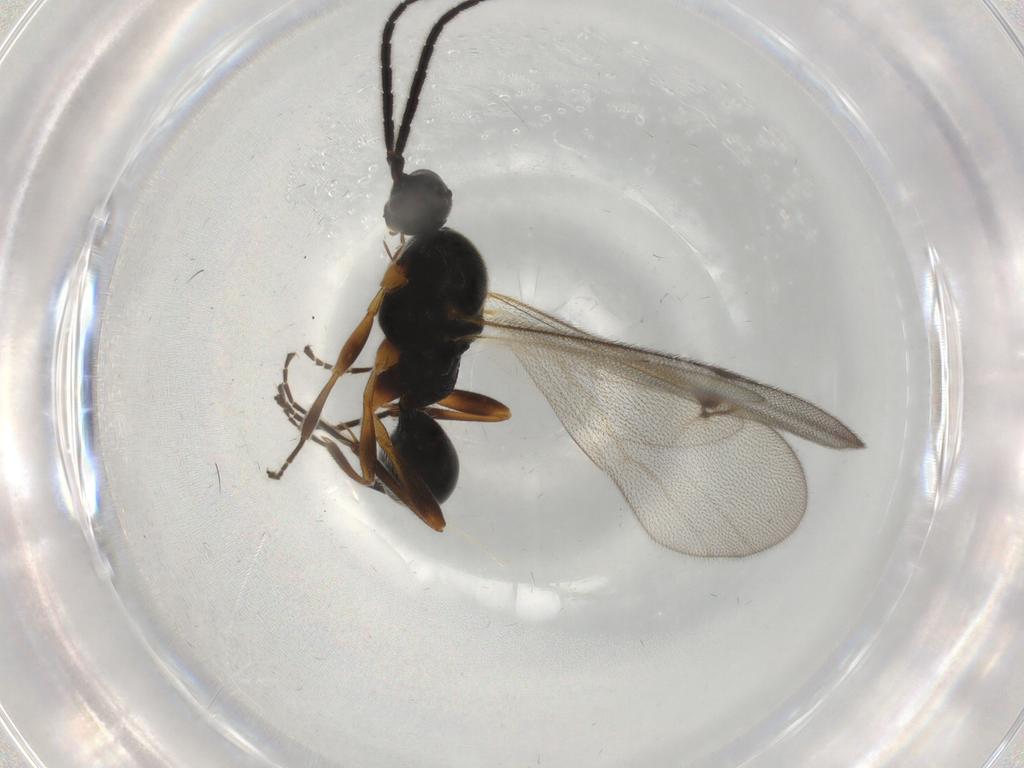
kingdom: Animalia
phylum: Arthropoda
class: Insecta
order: Hymenoptera
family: Proctotrupidae
